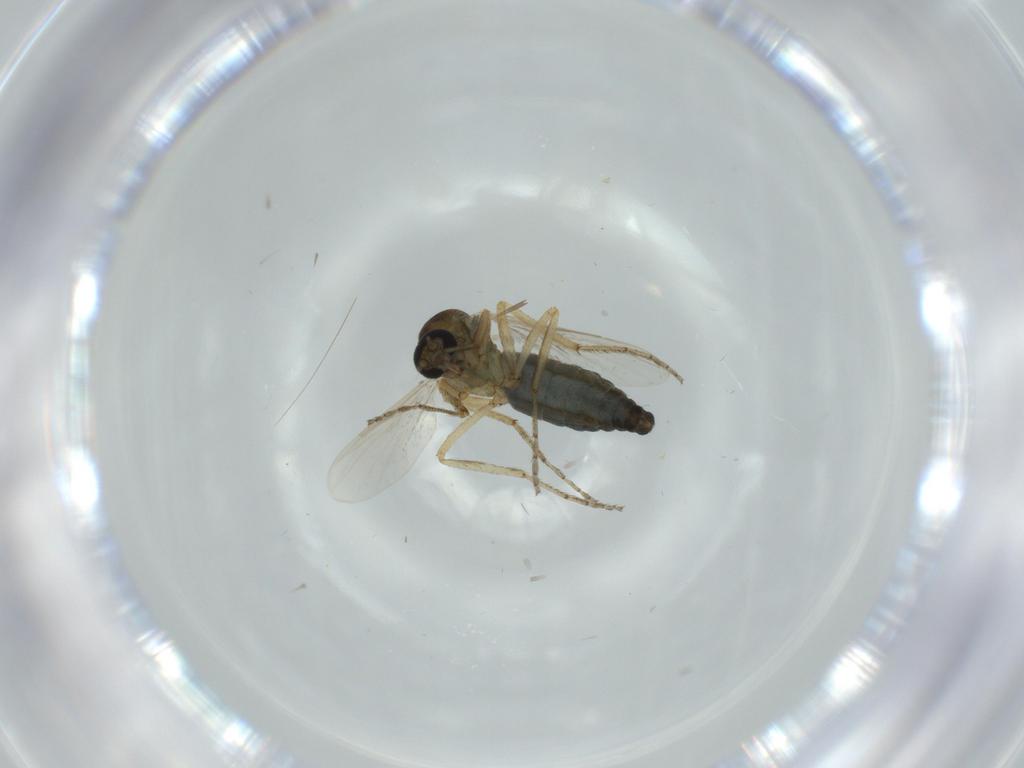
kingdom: Animalia
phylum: Arthropoda
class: Insecta
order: Diptera
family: Ceratopogonidae
